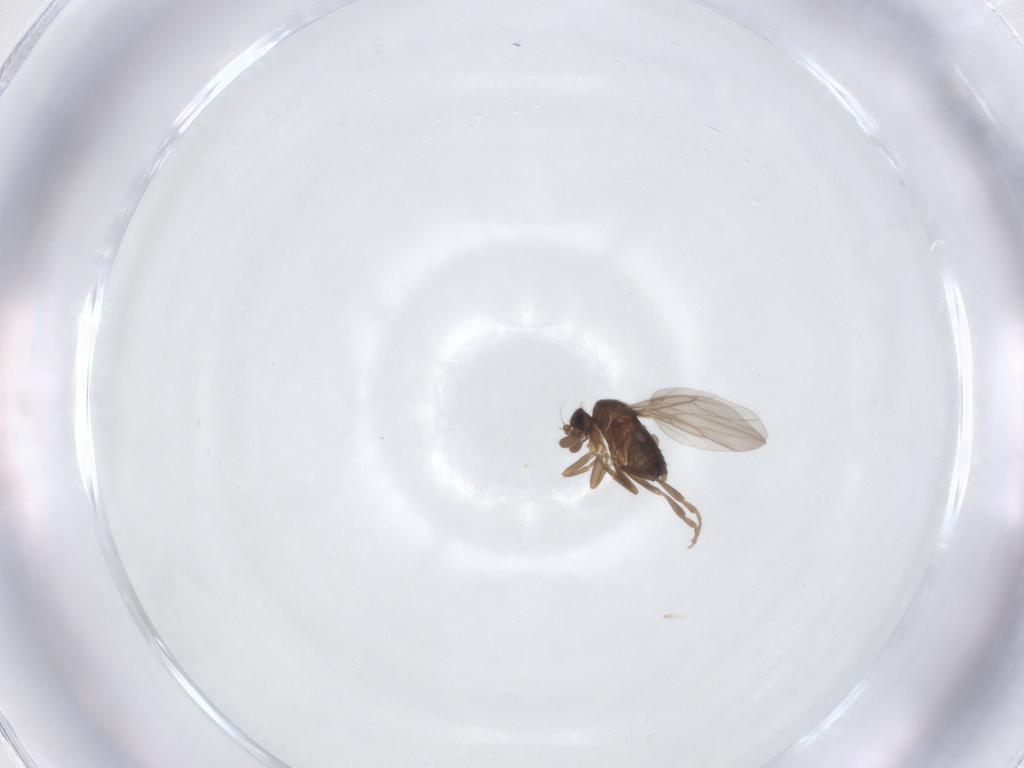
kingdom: Animalia
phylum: Arthropoda
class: Insecta
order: Diptera
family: Phoridae
